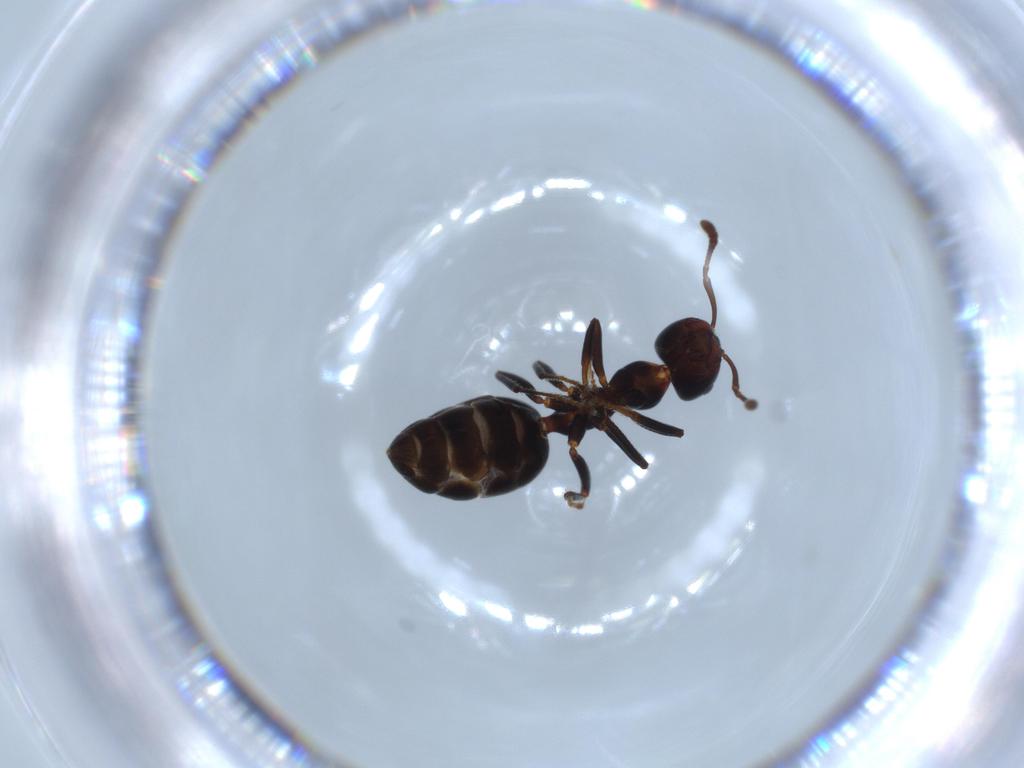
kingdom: Animalia
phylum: Arthropoda
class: Insecta
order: Hymenoptera
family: Formicidae
